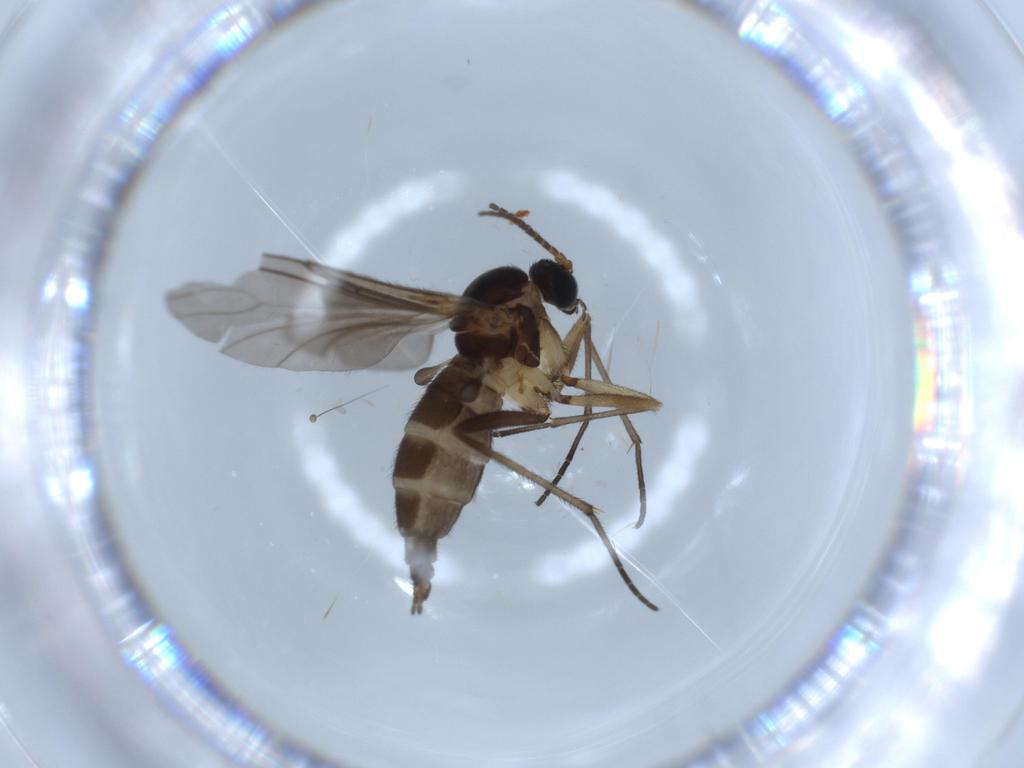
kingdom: Animalia
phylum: Arthropoda
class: Insecta
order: Diptera
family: Chironomidae
